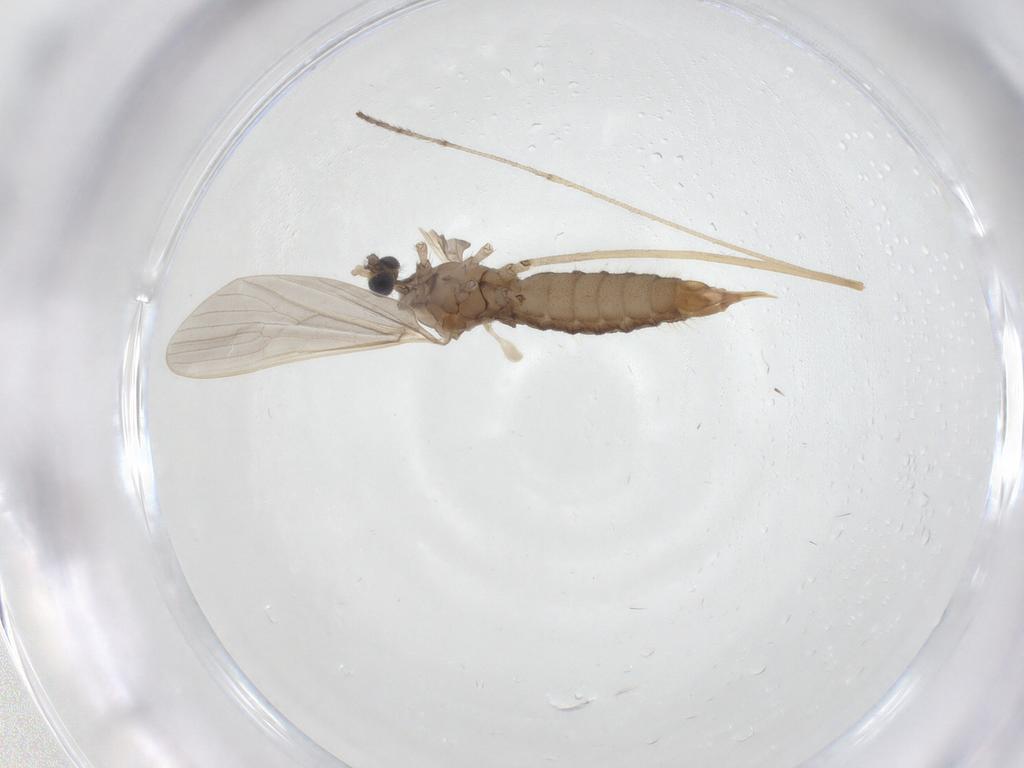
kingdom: Animalia
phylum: Arthropoda
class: Insecta
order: Diptera
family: Limoniidae
